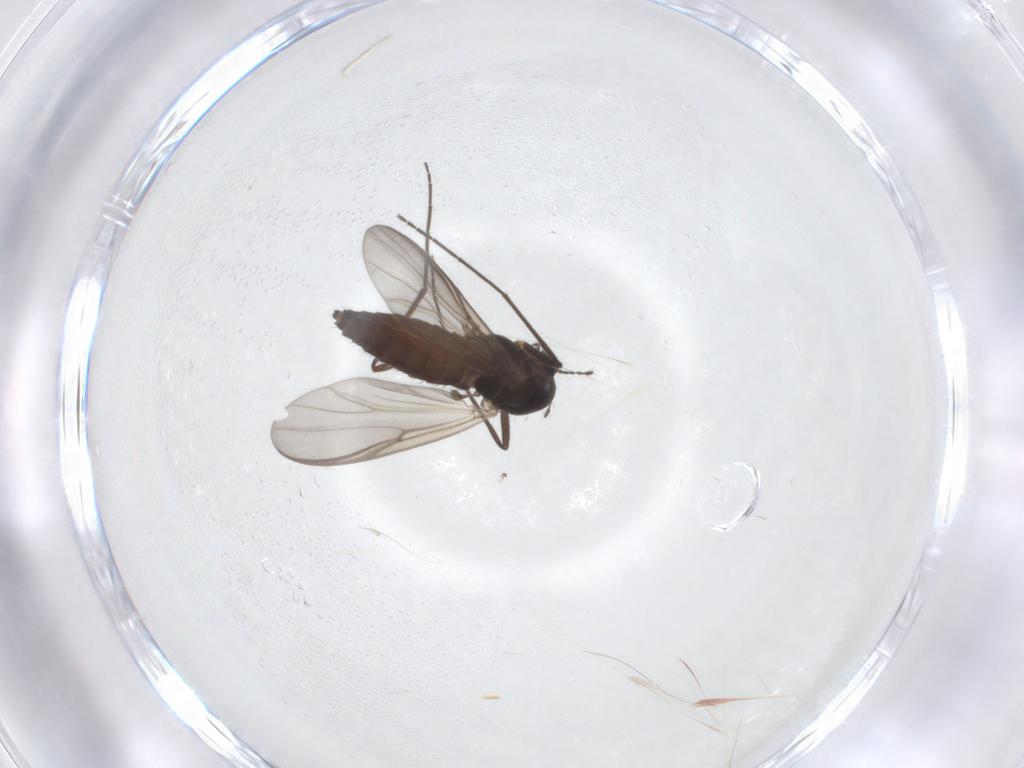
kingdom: Animalia
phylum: Arthropoda
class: Insecta
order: Diptera
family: Chironomidae
